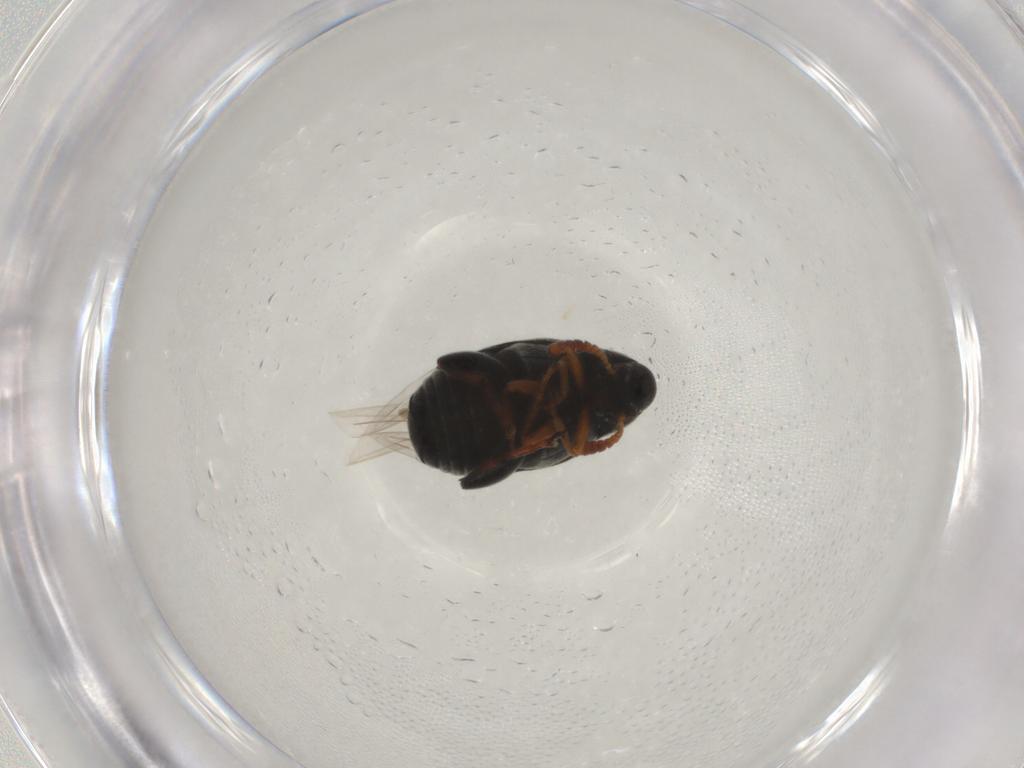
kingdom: Animalia
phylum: Arthropoda
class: Insecta
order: Coleoptera
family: Chrysomelidae
